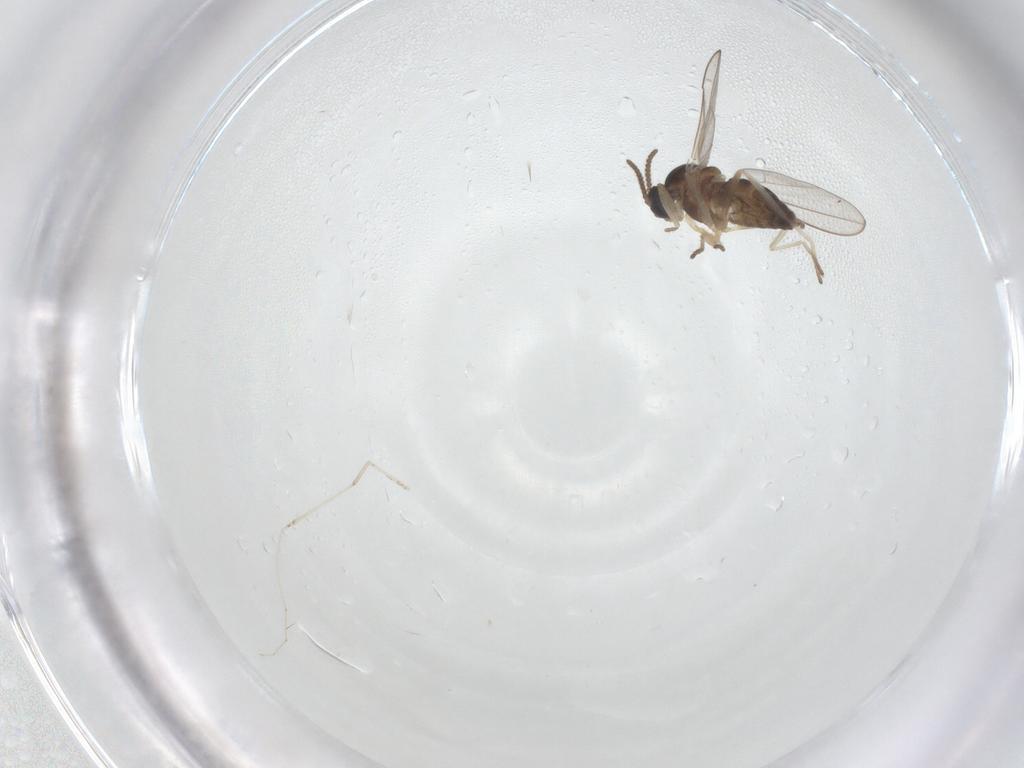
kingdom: Animalia
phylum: Arthropoda
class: Insecta
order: Diptera
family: Cecidomyiidae
